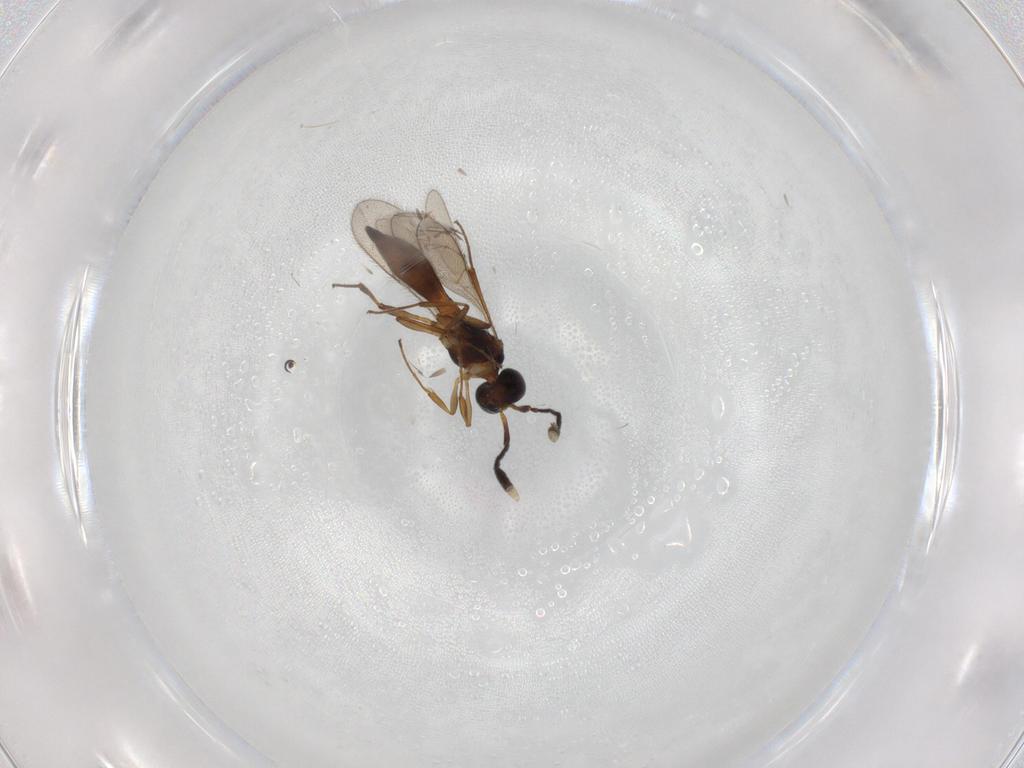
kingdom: Animalia
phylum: Arthropoda
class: Insecta
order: Hymenoptera
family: Scelionidae
